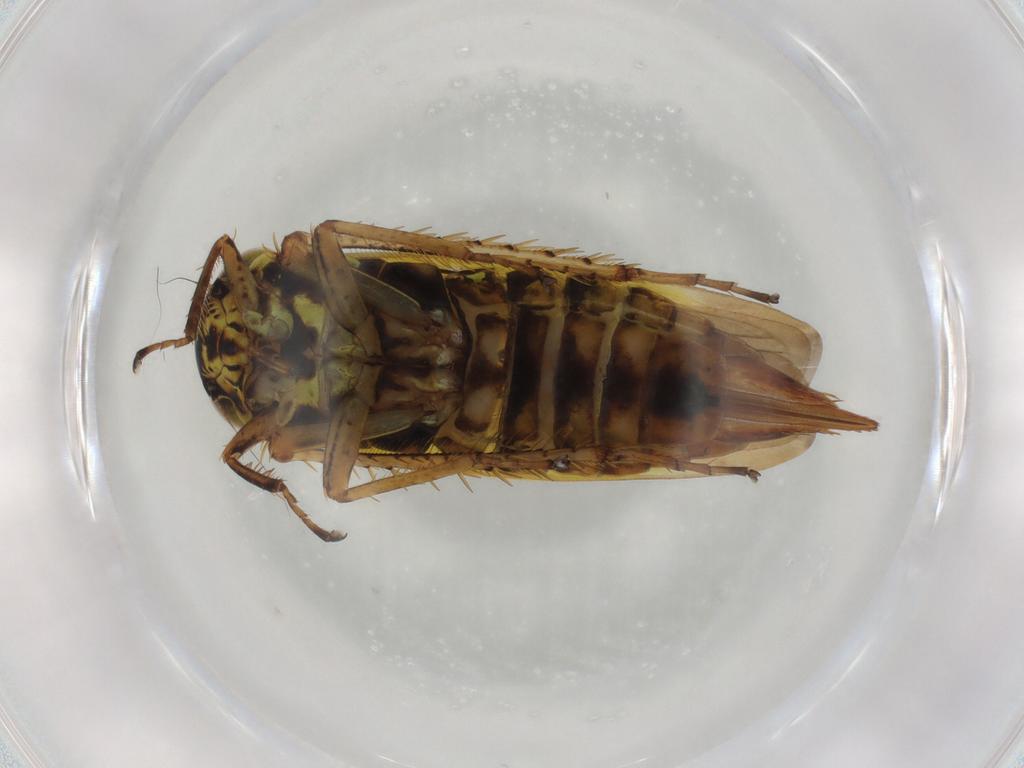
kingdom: Animalia
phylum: Arthropoda
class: Insecta
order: Hemiptera
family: Cicadellidae
